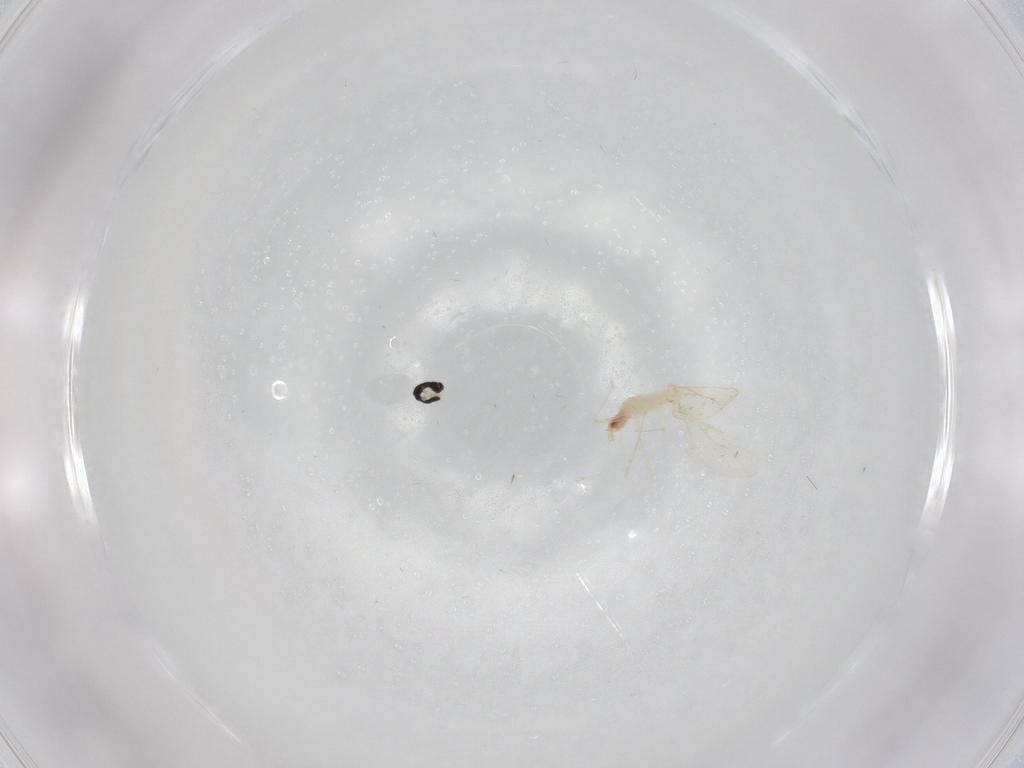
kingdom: Animalia
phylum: Arthropoda
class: Insecta
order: Diptera
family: Cecidomyiidae
